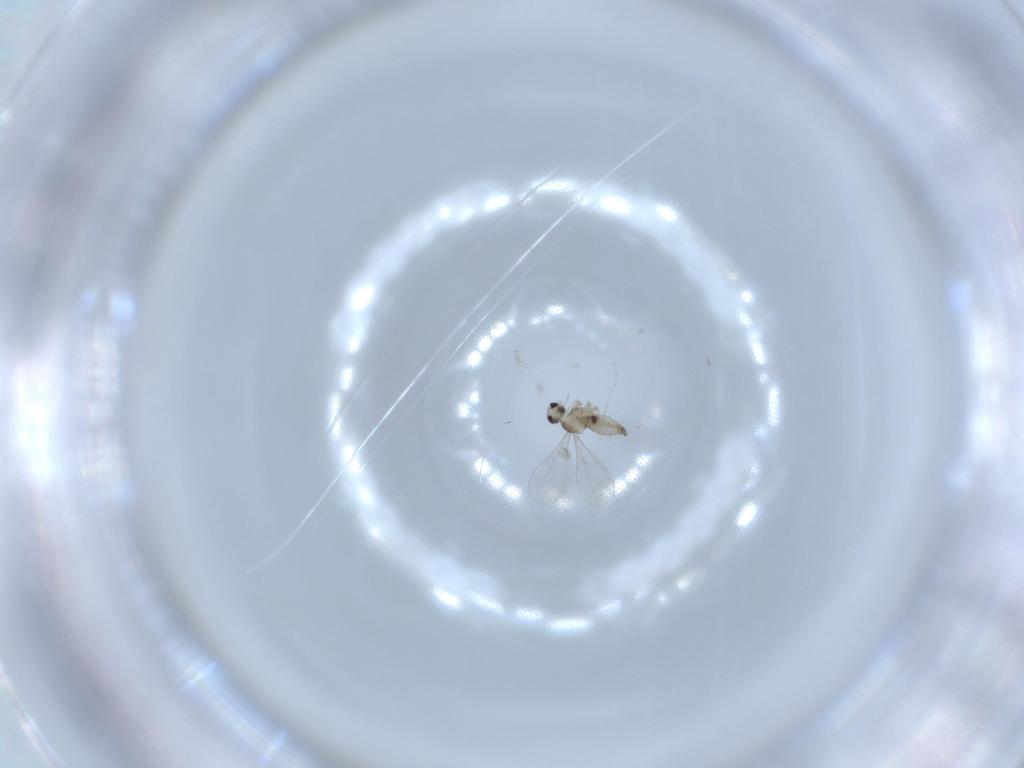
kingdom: Animalia
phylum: Arthropoda
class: Insecta
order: Diptera
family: Cecidomyiidae
